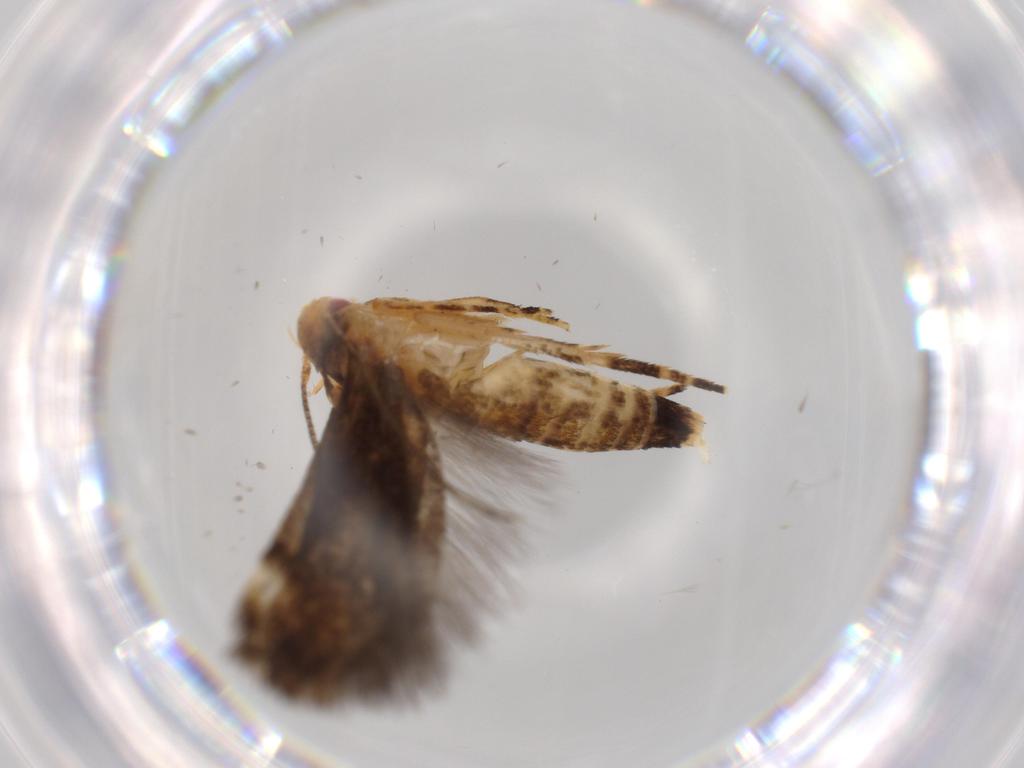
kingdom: Animalia
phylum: Arthropoda
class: Insecta
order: Lepidoptera
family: Momphidae
